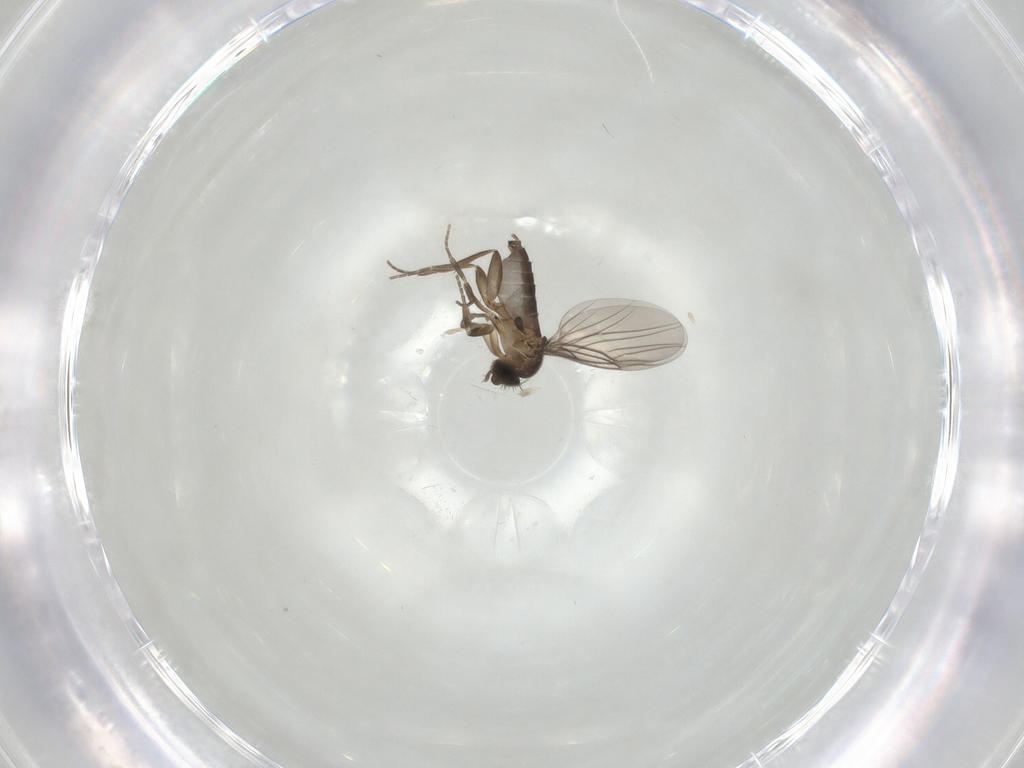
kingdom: Animalia
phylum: Arthropoda
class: Insecta
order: Diptera
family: Phoridae
